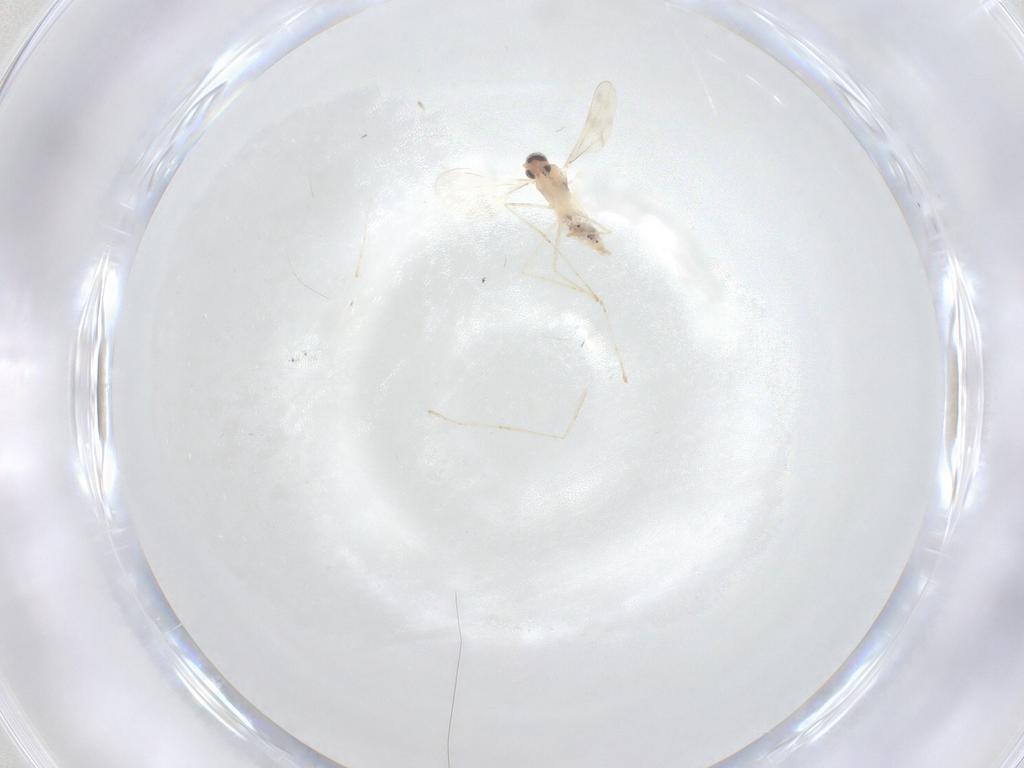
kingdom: Animalia
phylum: Arthropoda
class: Insecta
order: Diptera
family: Cecidomyiidae
